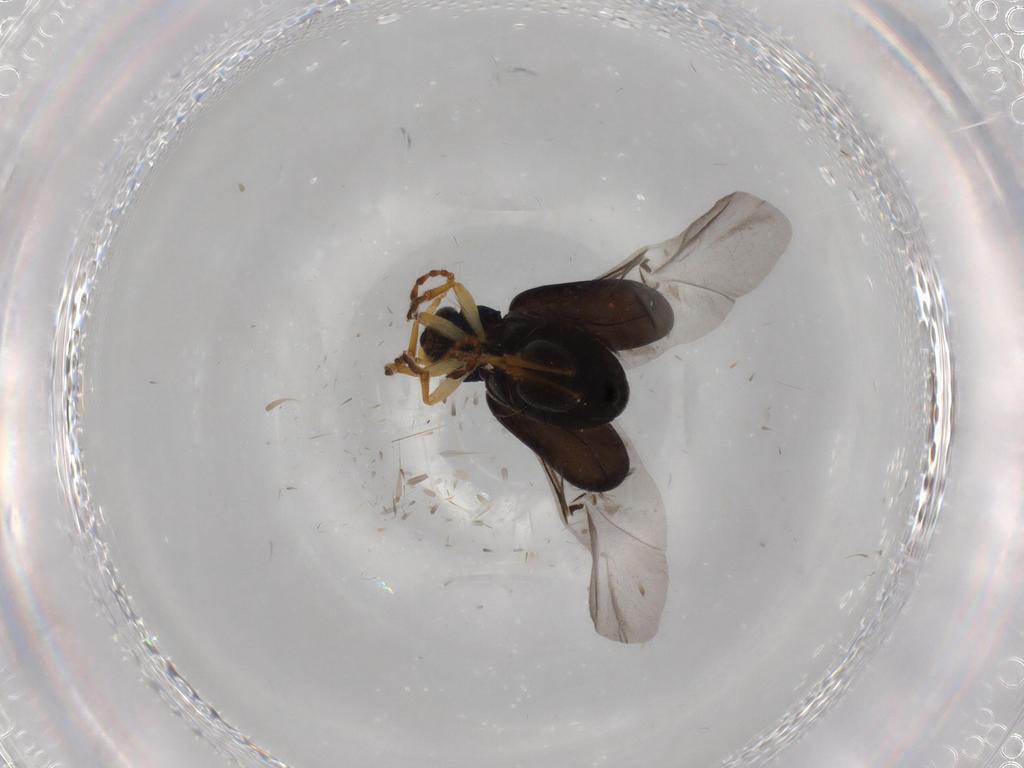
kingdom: Animalia
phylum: Arthropoda
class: Insecta
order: Coleoptera
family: Chrysomelidae
